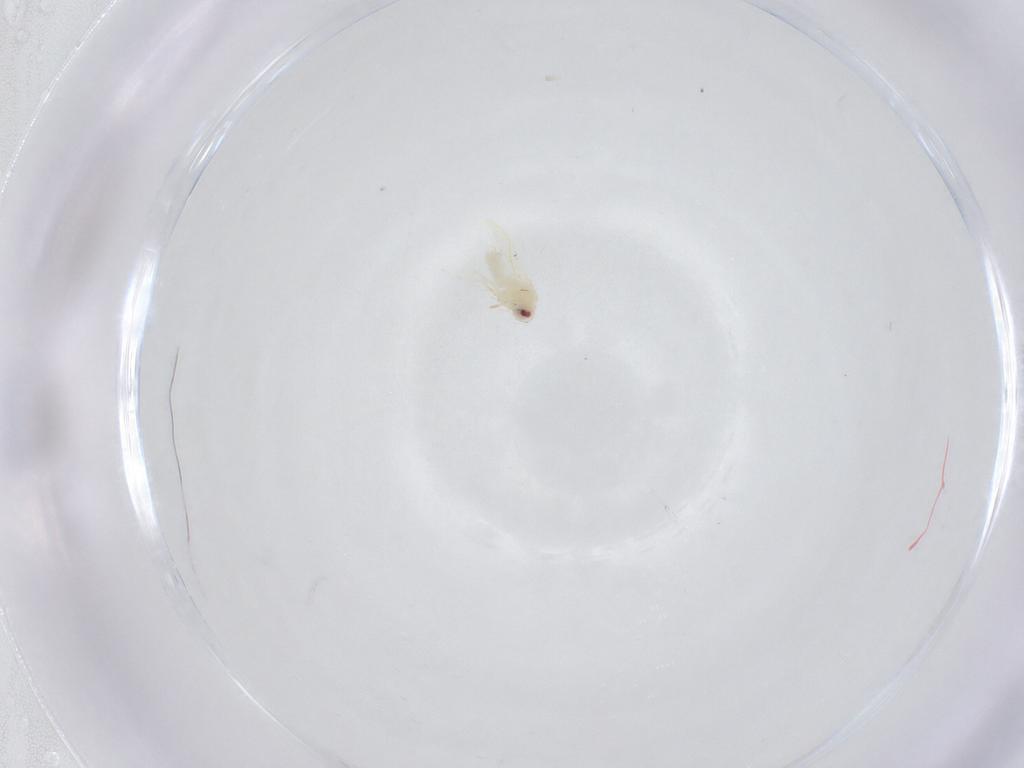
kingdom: Animalia
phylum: Arthropoda
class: Insecta
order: Hemiptera
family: Aleyrodidae
